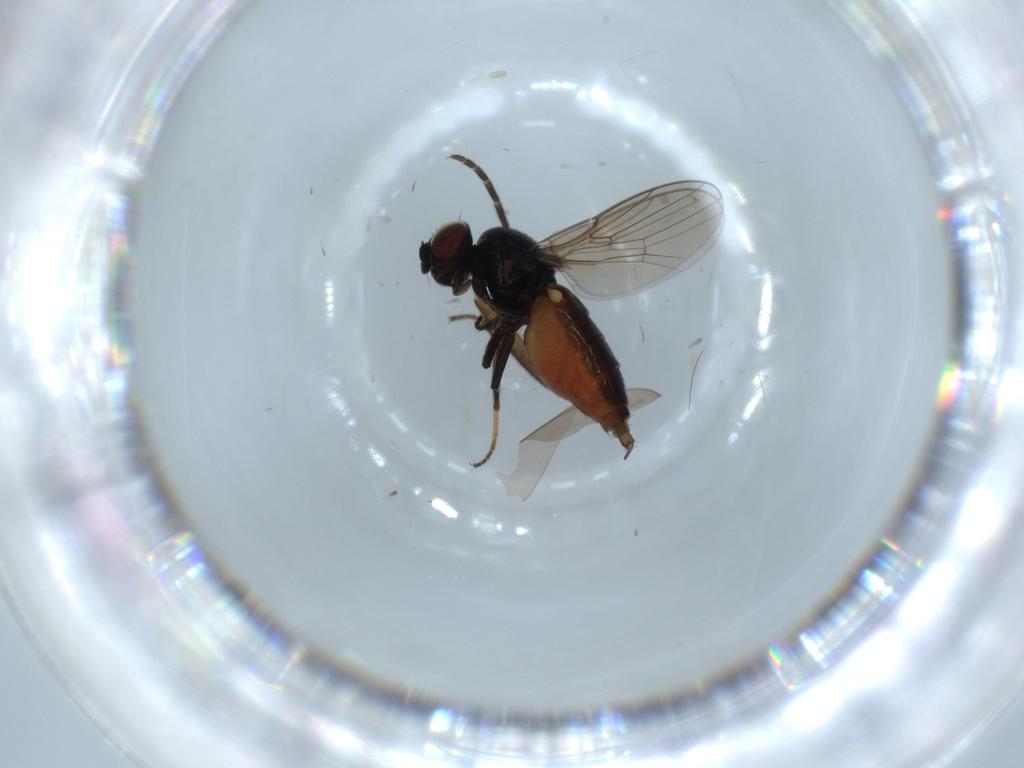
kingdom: Animalia
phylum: Arthropoda
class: Insecta
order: Diptera
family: Chloropidae
